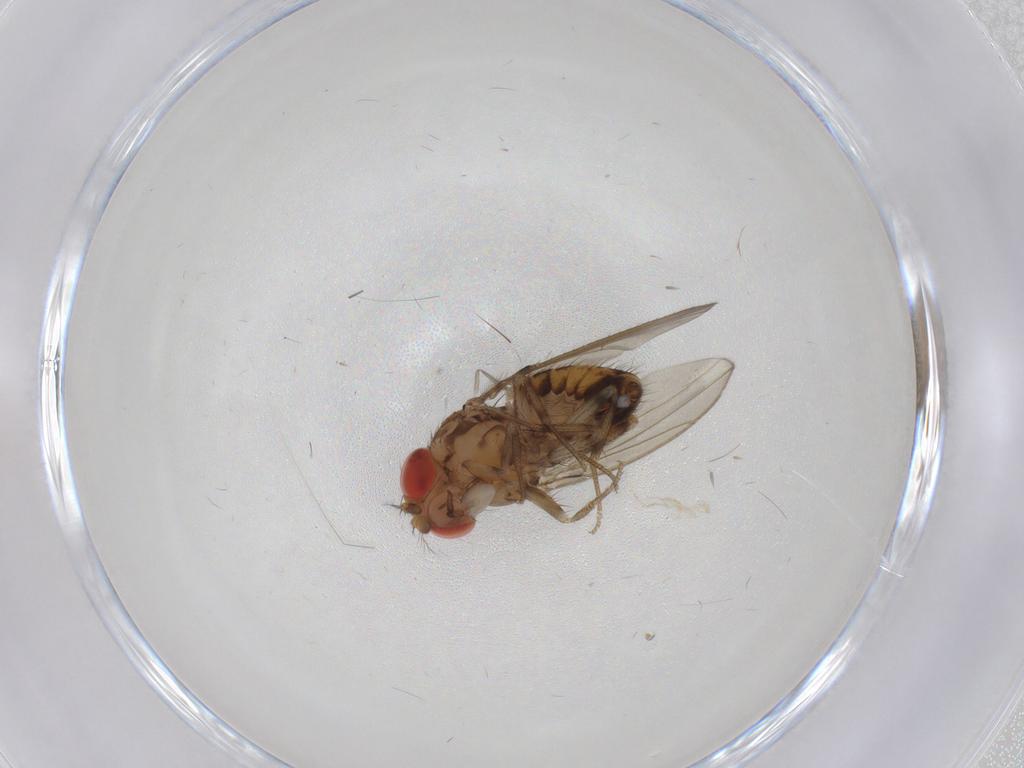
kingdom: Animalia
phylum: Arthropoda
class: Insecta
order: Diptera
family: Drosophilidae
